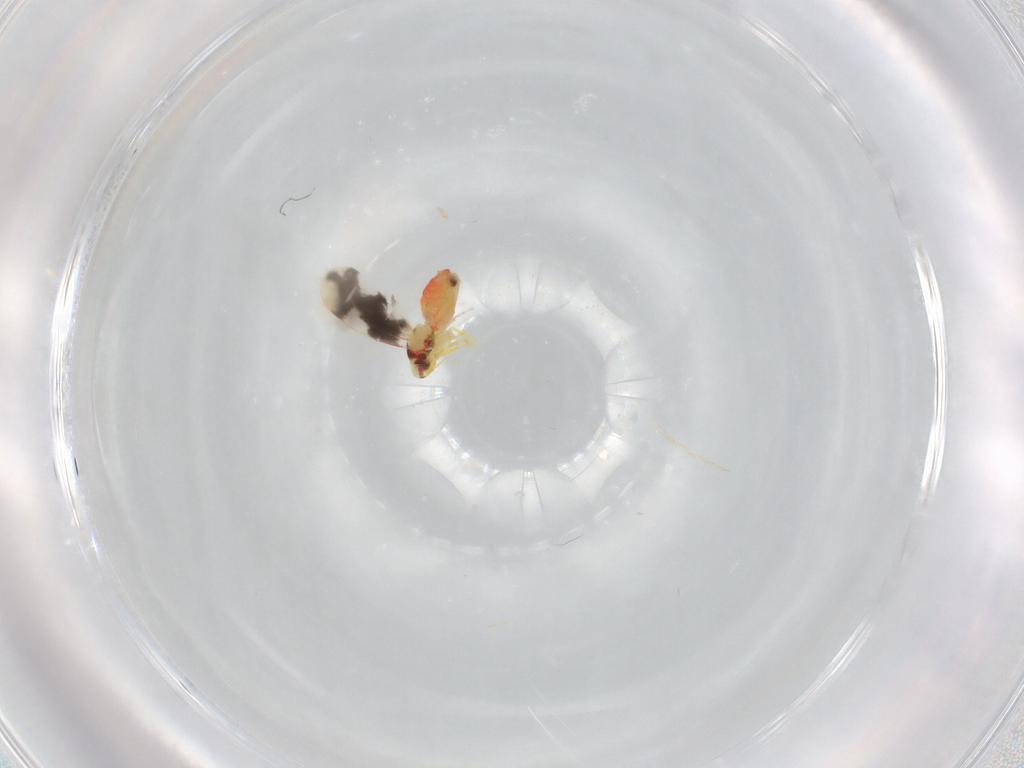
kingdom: Animalia
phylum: Arthropoda
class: Insecta
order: Hemiptera
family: Aleyrodidae
